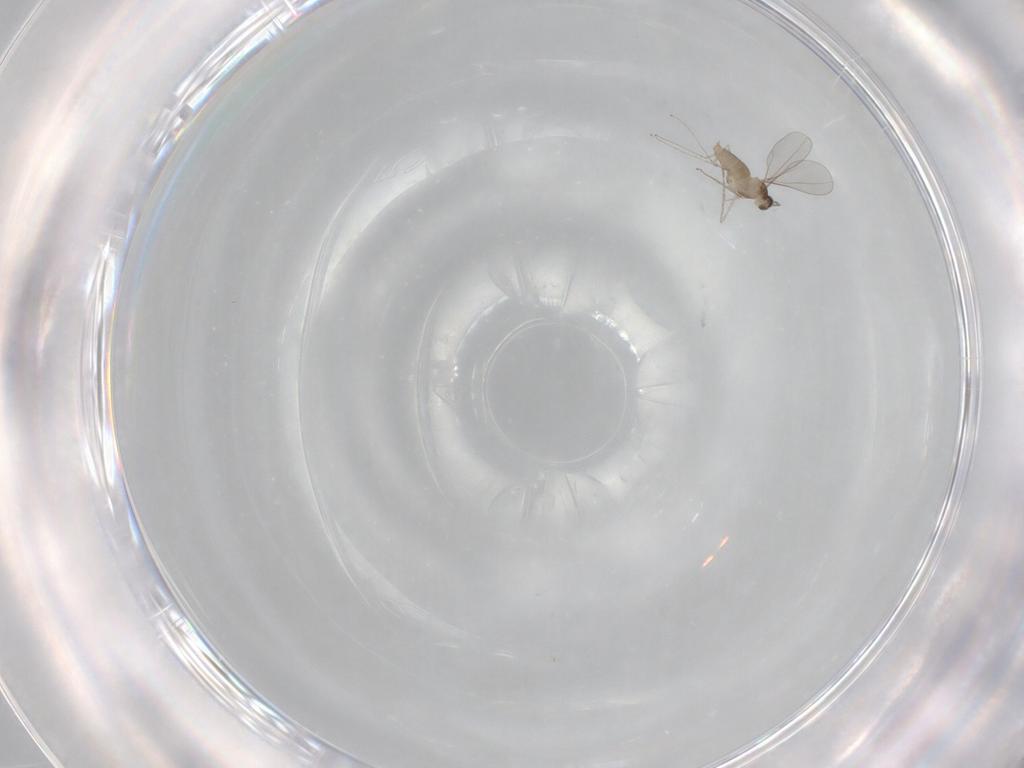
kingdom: Animalia
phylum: Arthropoda
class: Insecta
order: Diptera
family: Cecidomyiidae
